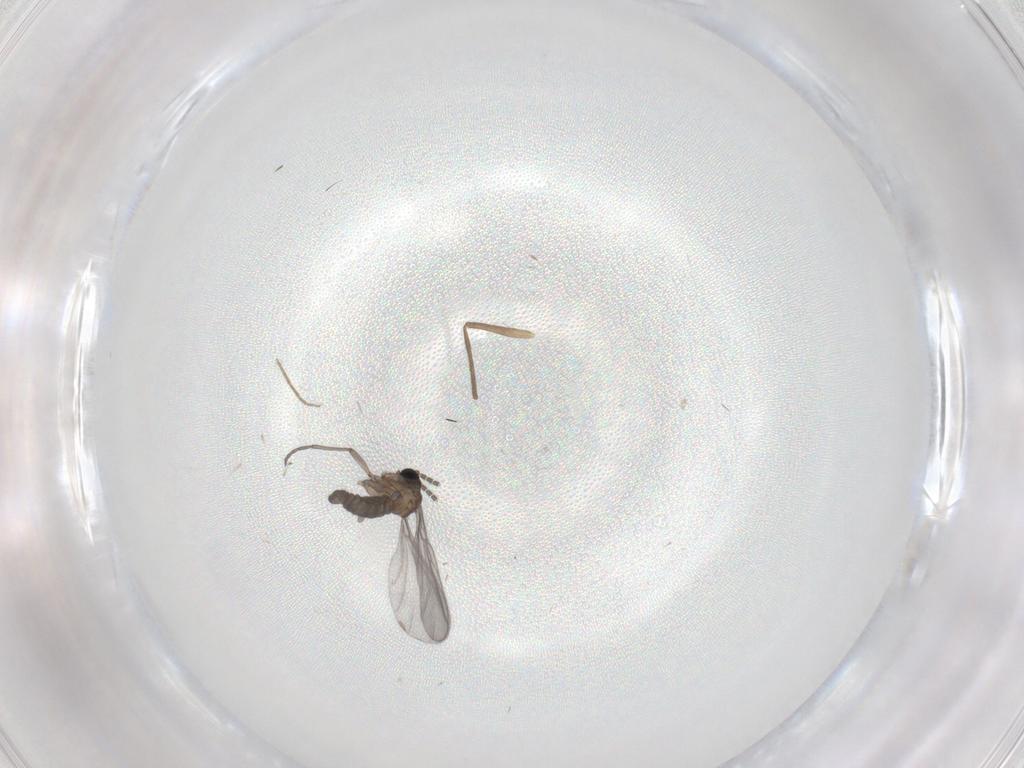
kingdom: Animalia
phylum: Arthropoda
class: Insecta
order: Diptera
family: Sciaridae
